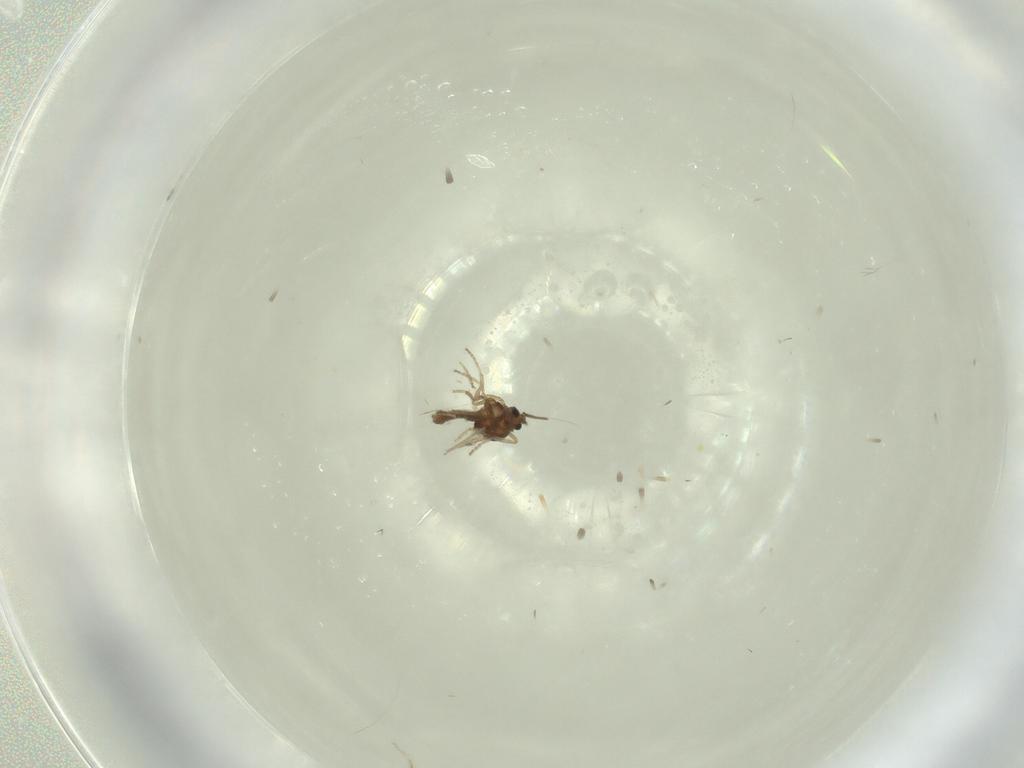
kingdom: Animalia
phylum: Arthropoda
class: Insecta
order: Diptera
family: Ceratopogonidae
